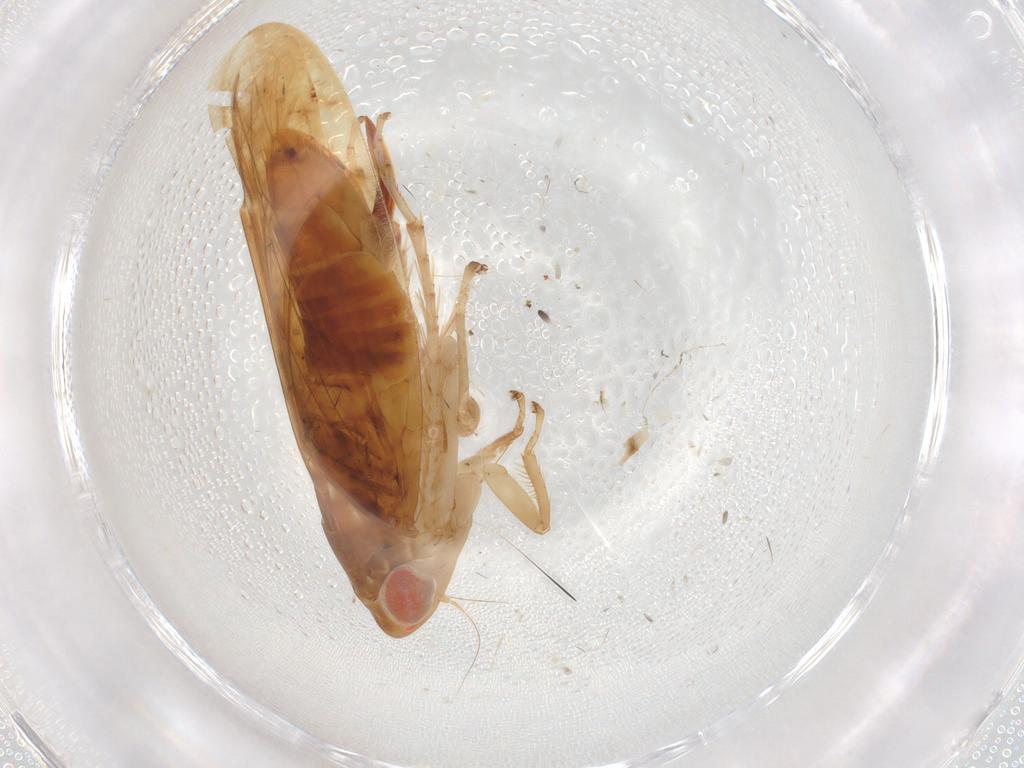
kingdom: Animalia
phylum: Arthropoda
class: Insecta
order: Hemiptera
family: Cicadellidae
